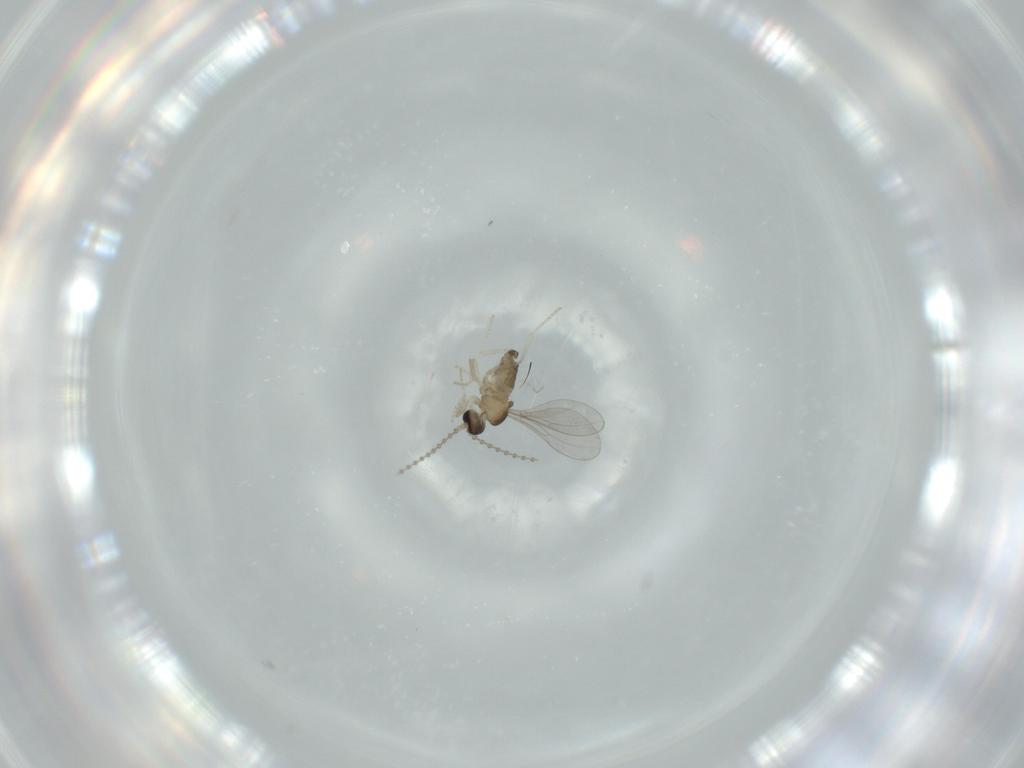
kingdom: Animalia
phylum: Arthropoda
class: Insecta
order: Diptera
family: Cecidomyiidae
